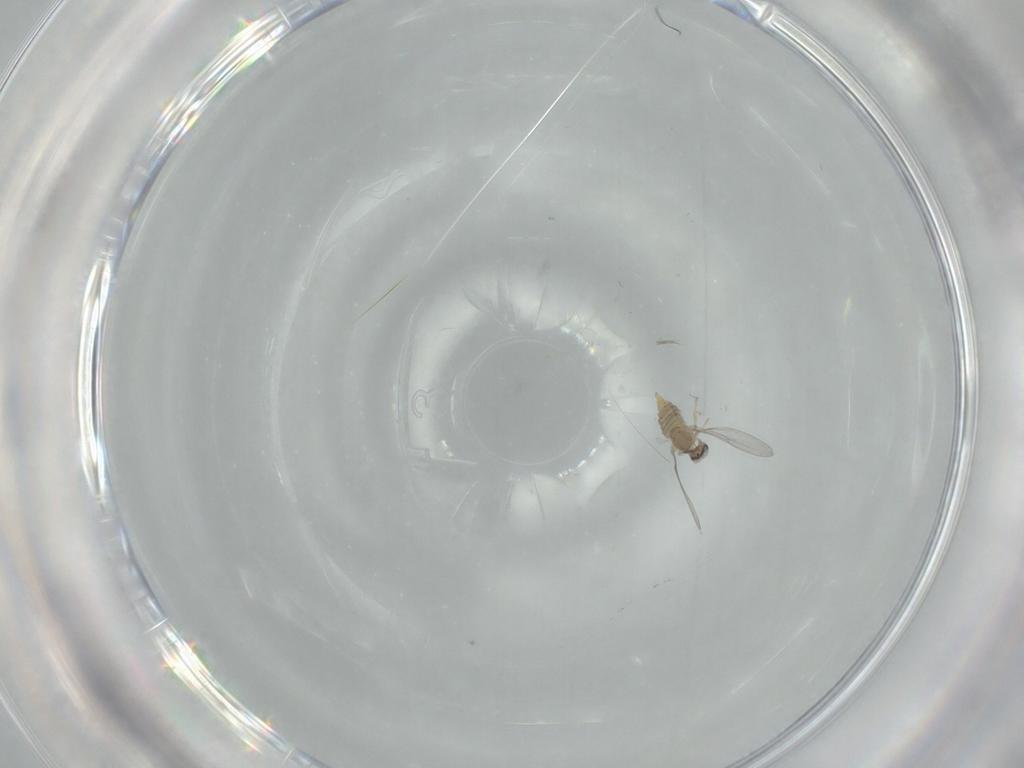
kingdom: Animalia
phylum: Arthropoda
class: Insecta
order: Diptera
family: Cecidomyiidae
